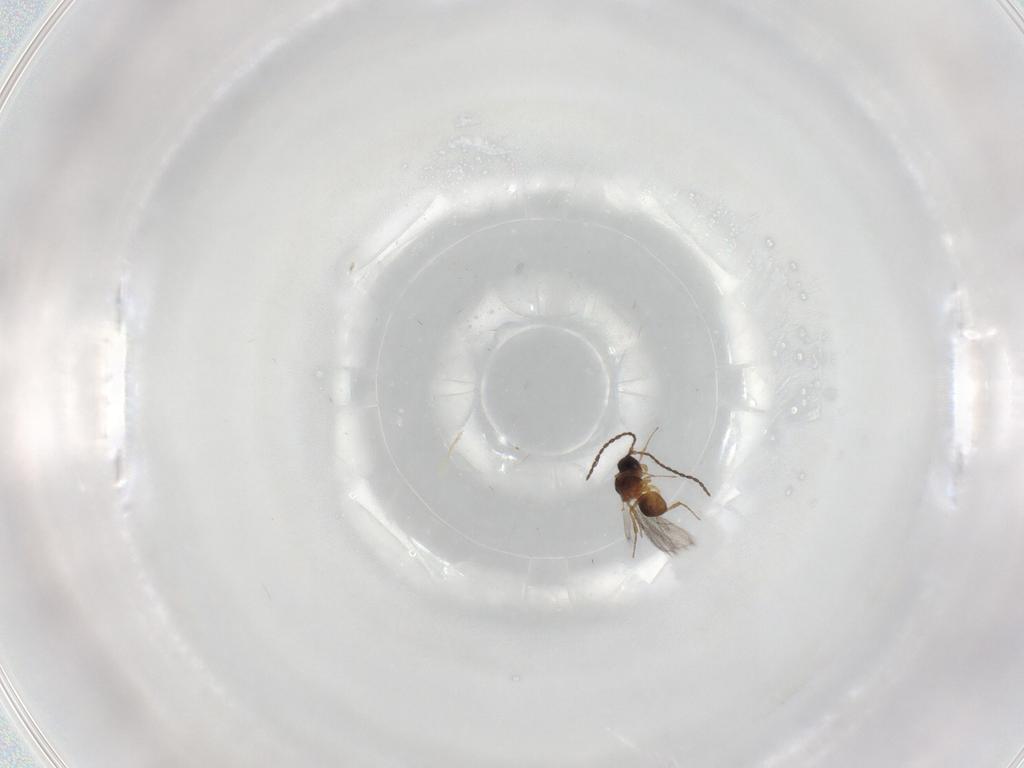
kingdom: Animalia
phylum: Arthropoda
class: Insecta
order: Hymenoptera
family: Figitidae
